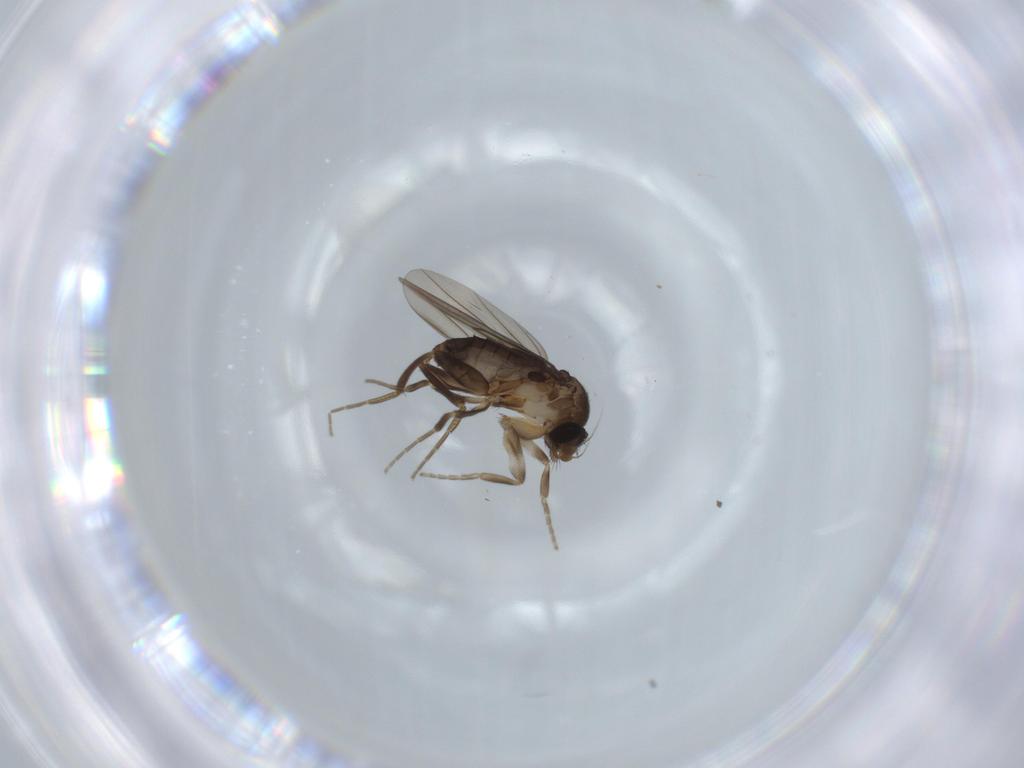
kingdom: Animalia
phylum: Arthropoda
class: Insecta
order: Diptera
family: Phoridae
